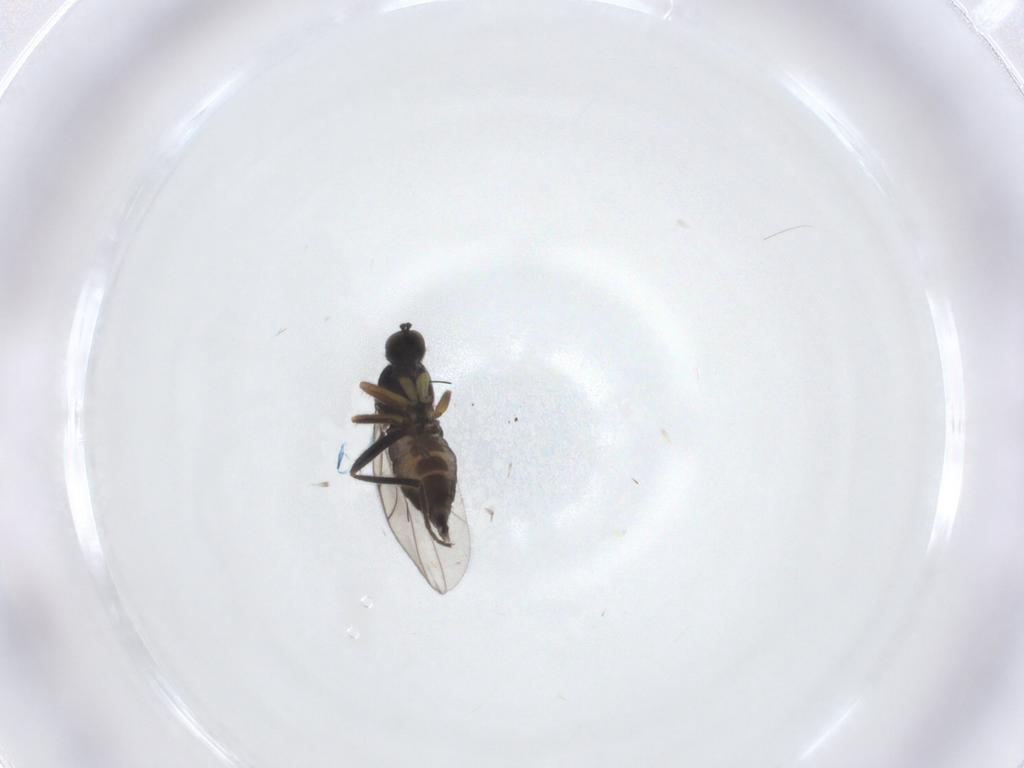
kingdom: Animalia
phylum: Arthropoda
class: Insecta
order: Diptera
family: Hybotidae
